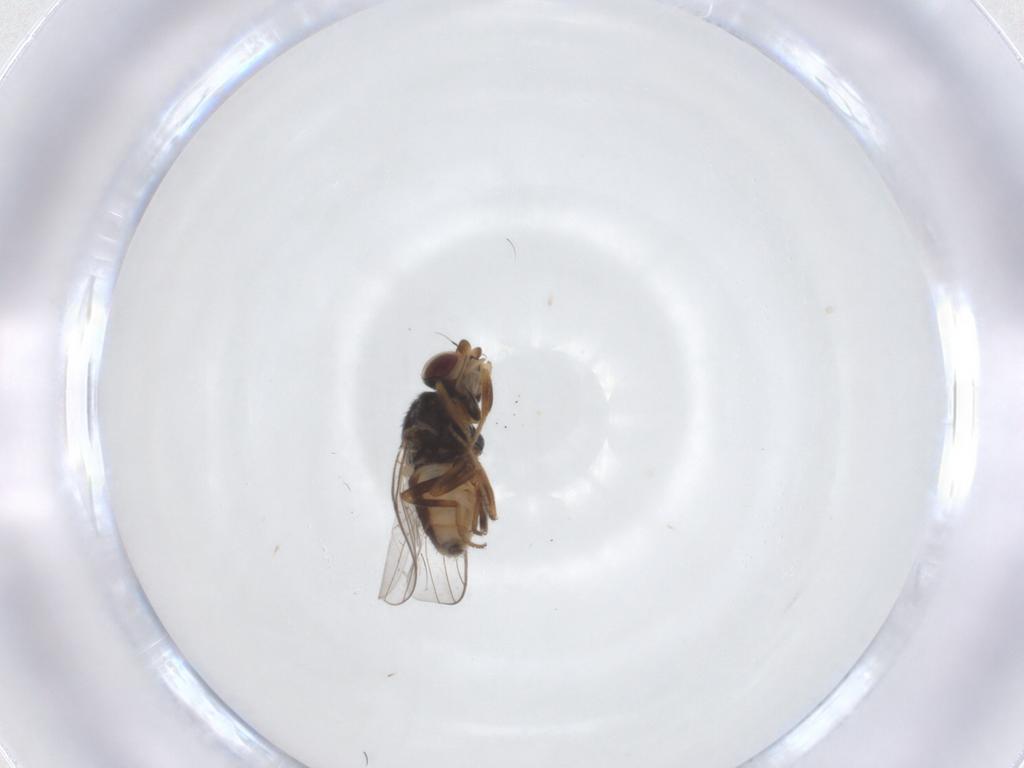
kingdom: Animalia
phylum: Arthropoda
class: Insecta
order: Diptera
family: Chloropidae
